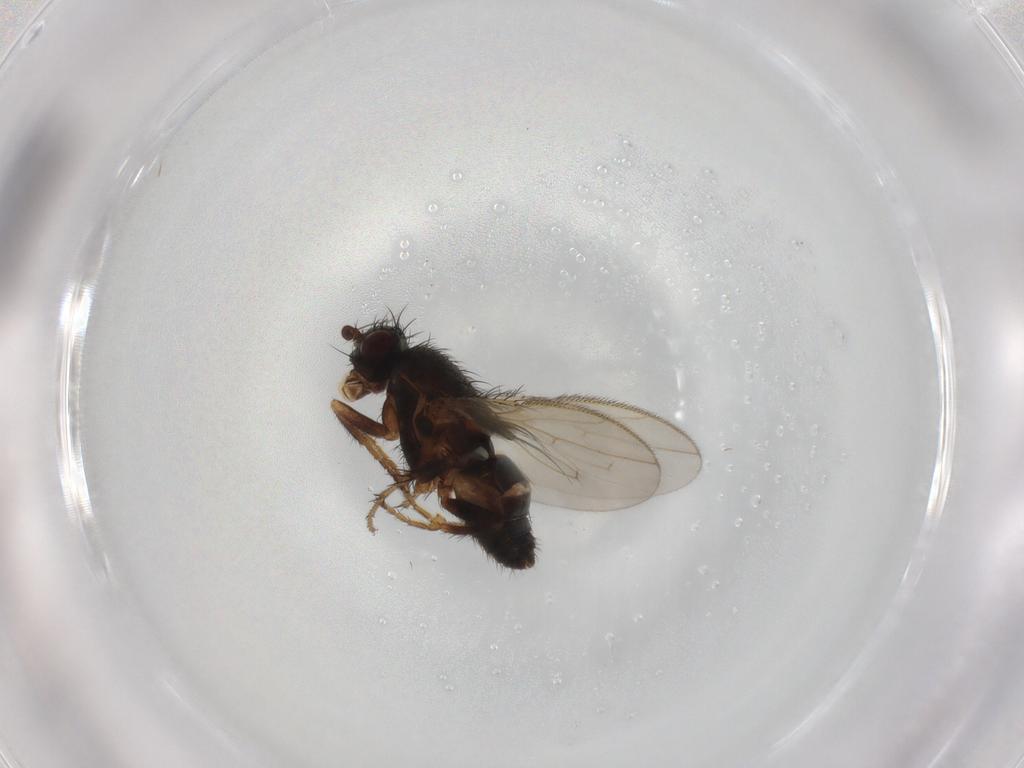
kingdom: Animalia
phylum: Arthropoda
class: Insecta
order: Diptera
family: Sphaeroceridae
